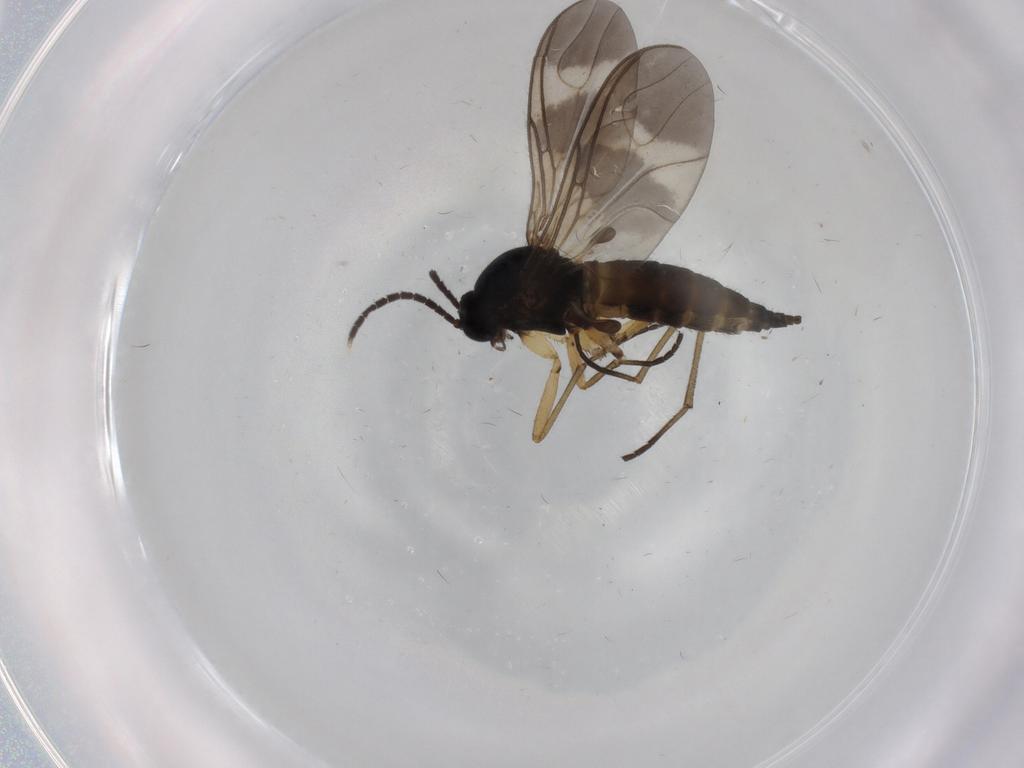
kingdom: Animalia
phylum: Arthropoda
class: Insecta
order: Diptera
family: Sciaridae
